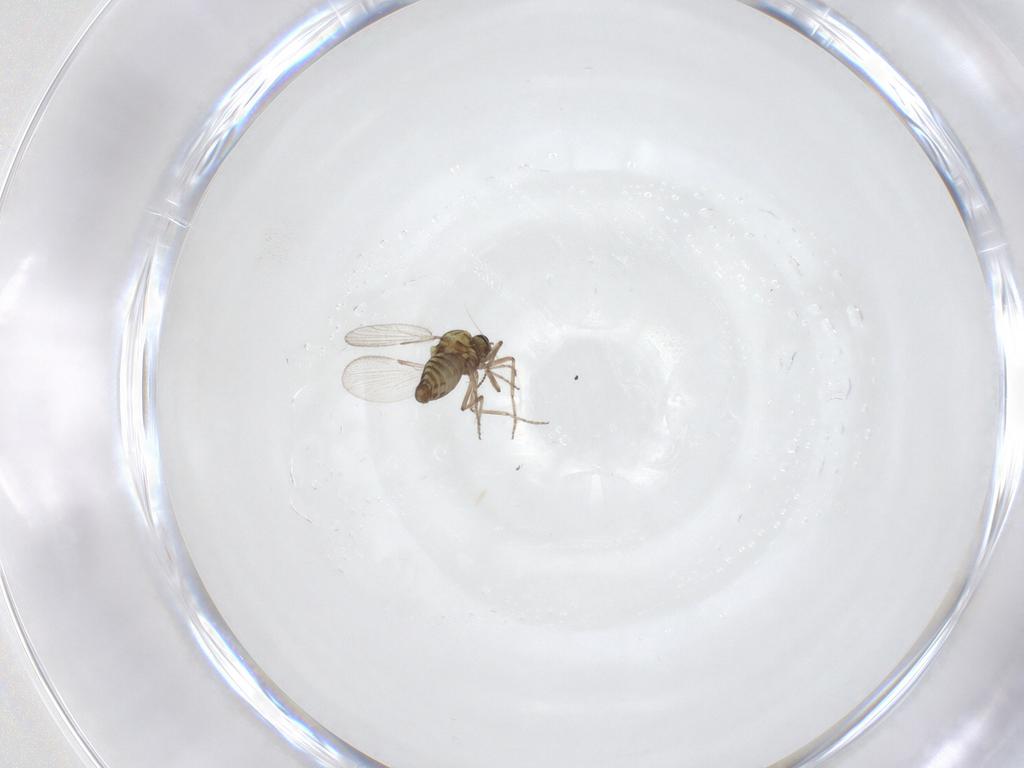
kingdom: Animalia
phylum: Arthropoda
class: Insecta
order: Diptera
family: Ceratopogonidae
